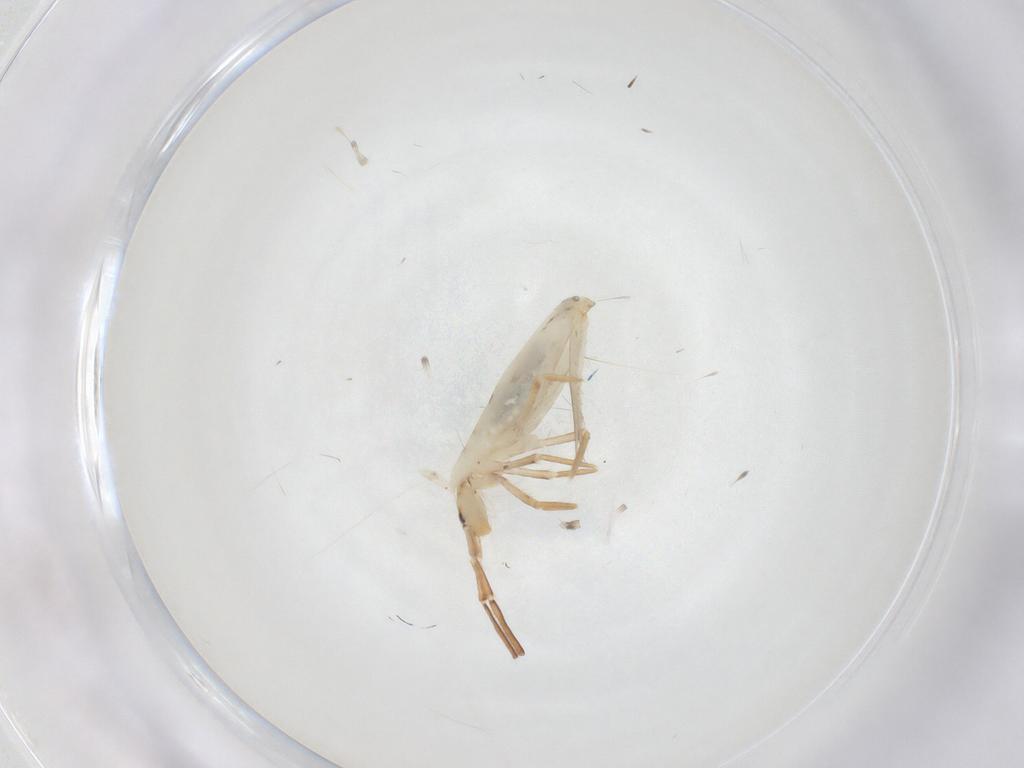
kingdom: Animalia
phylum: Arthropoda
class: Collembola
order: Entomobryomorpha
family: Entomobryidae
